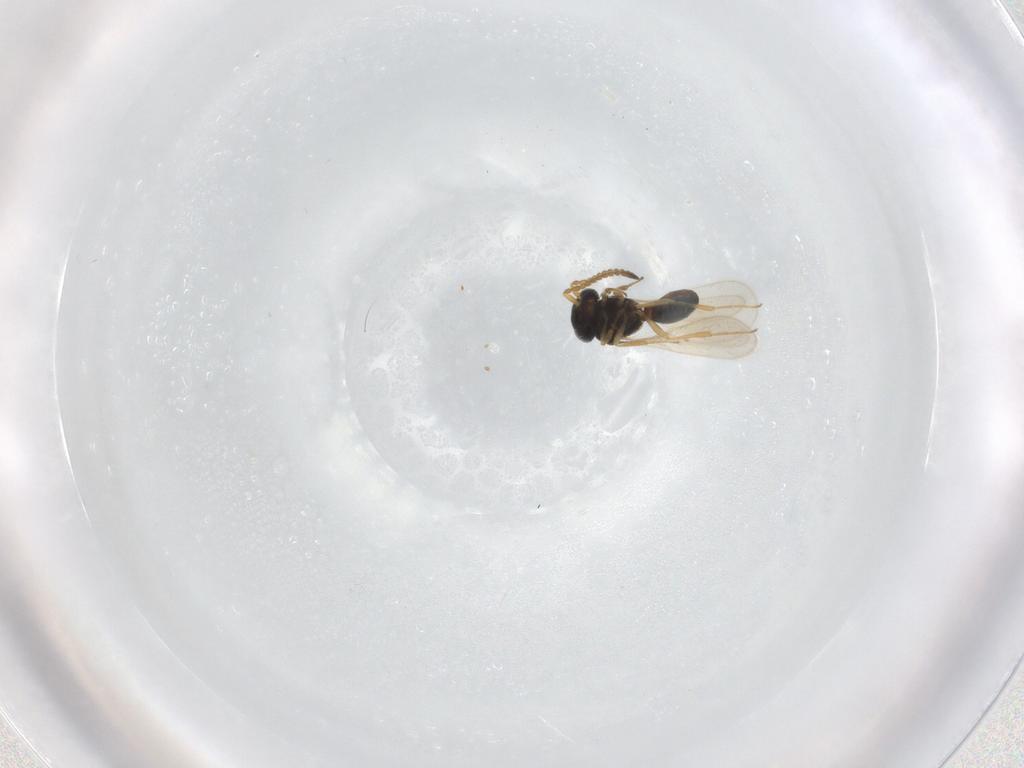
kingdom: Animalia
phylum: Arthropoda
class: Insecta
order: Hymenoptera
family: Scelionidae
